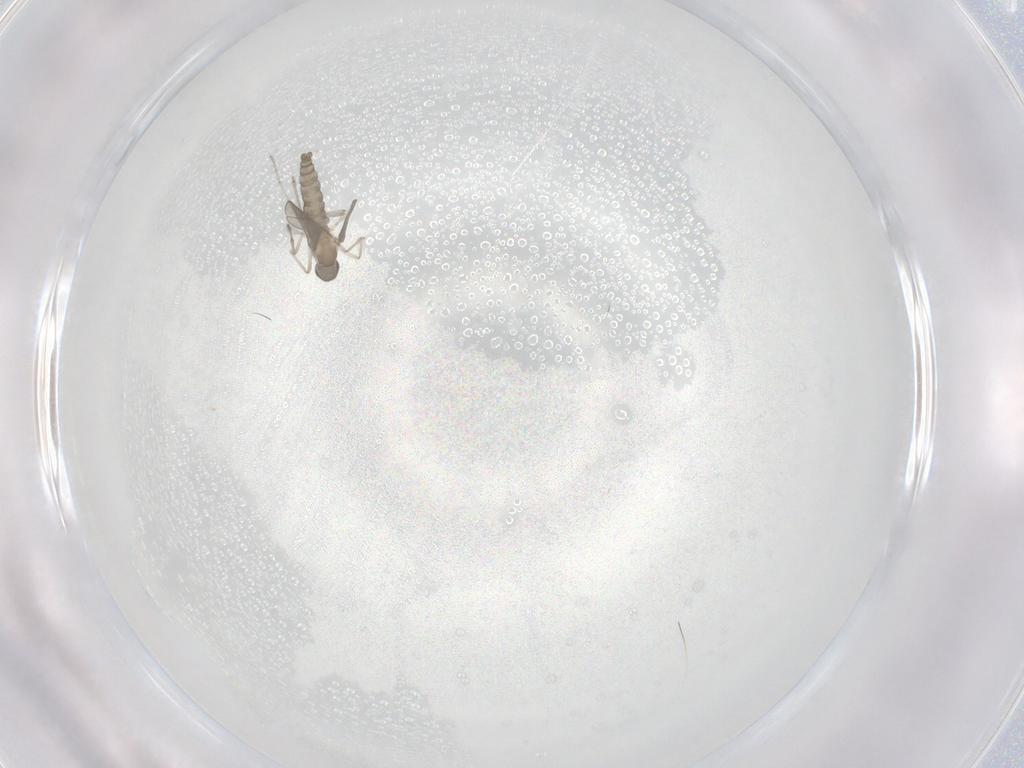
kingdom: Animalia
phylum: Arthropoda
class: Insecta
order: Diptera
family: Cecidomyiidae
